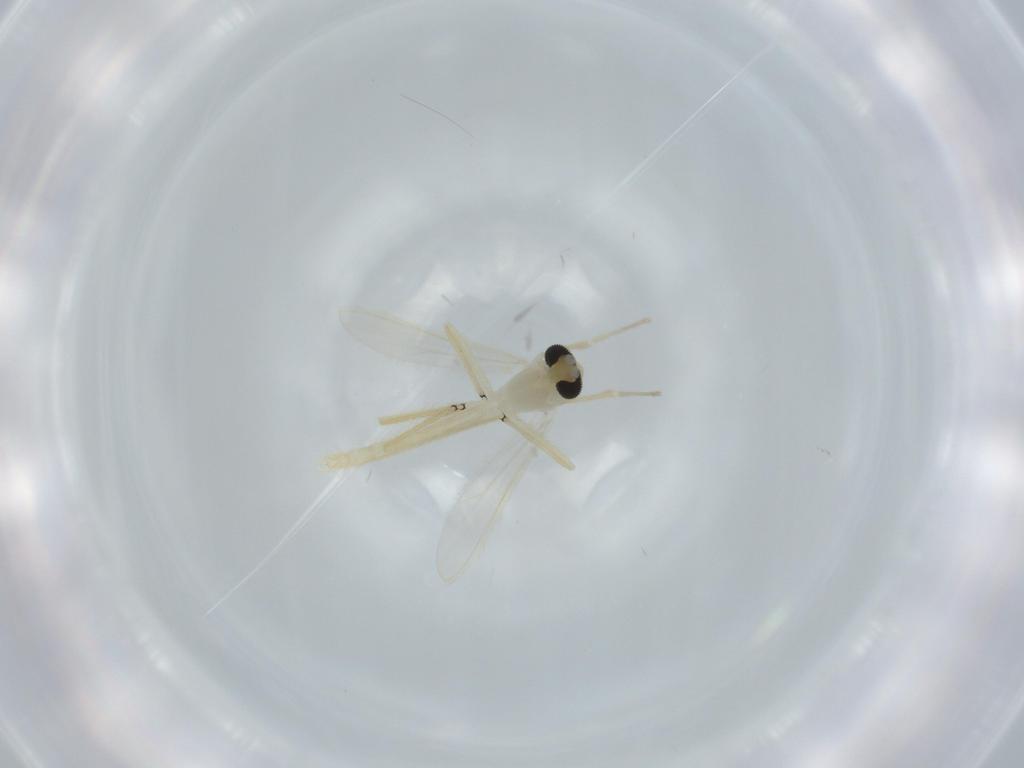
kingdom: Animalia
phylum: Arthropoda
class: Insecta
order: Diptera
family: Chironomidae
